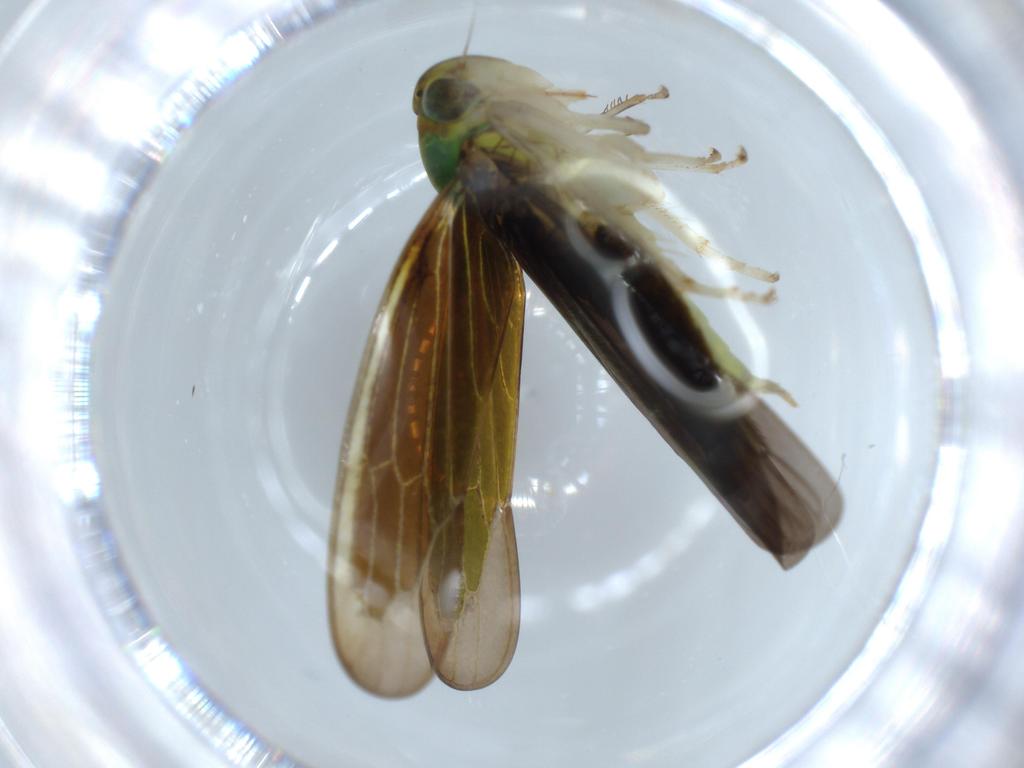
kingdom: Animalia
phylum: Arthropoda
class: Insecta
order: Hemiptera
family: Cicadellidae
